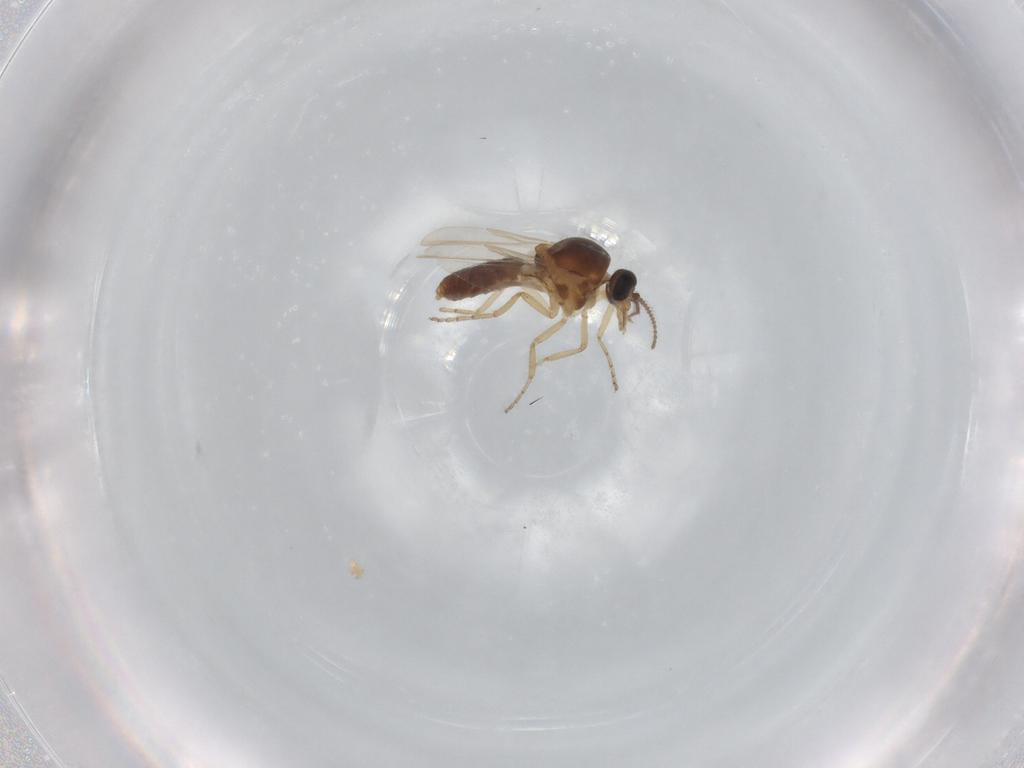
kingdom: Animalia
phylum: Arthropoda
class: Insecta
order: Diptera
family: Ceratopogonidae
